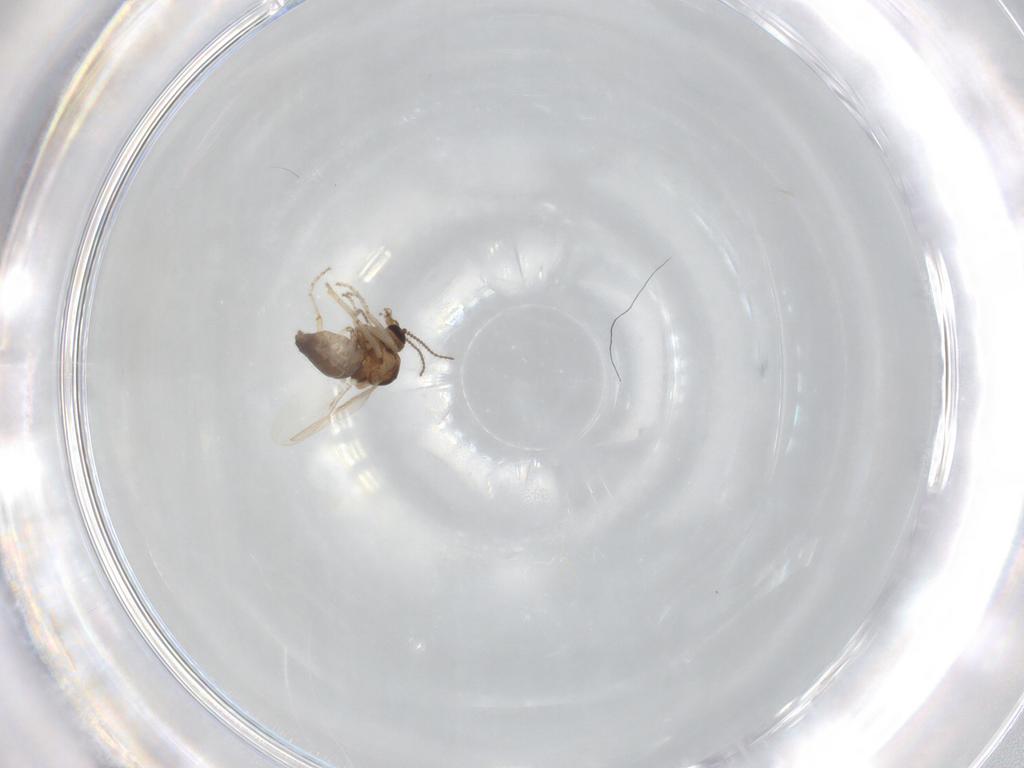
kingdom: Animalia
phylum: Arthropoda
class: Insecta
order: Diptera
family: Ceratopogonidae
